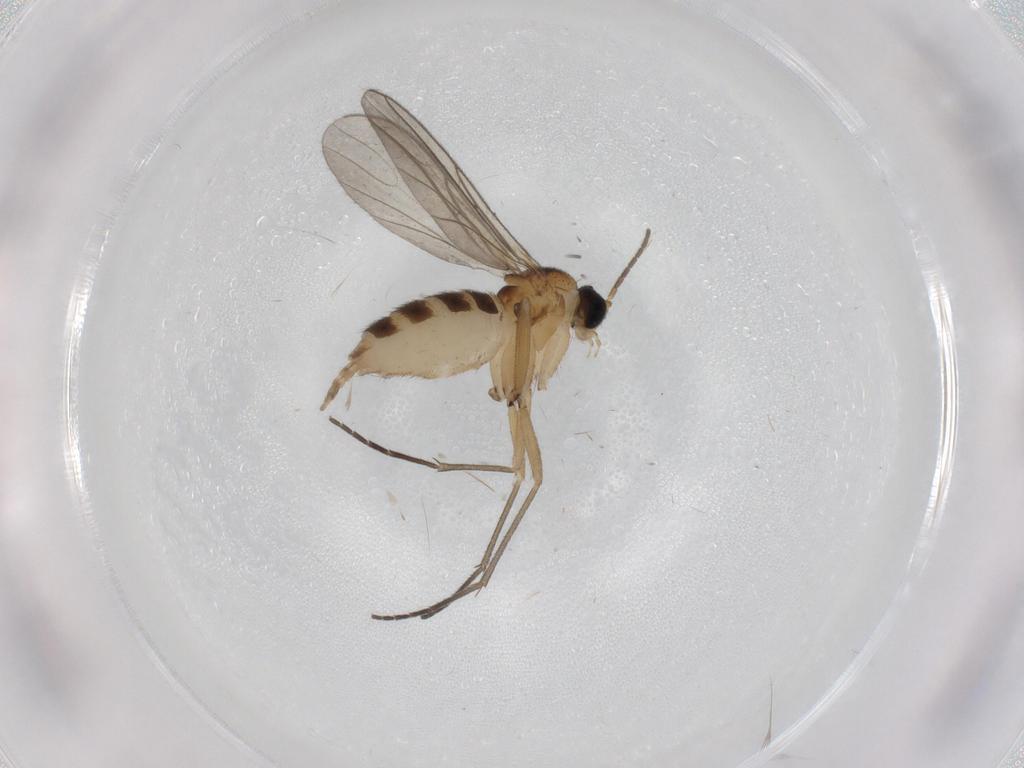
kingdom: Animalia
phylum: Arthropoda
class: Insecta
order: Diptera
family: Sciaridae
